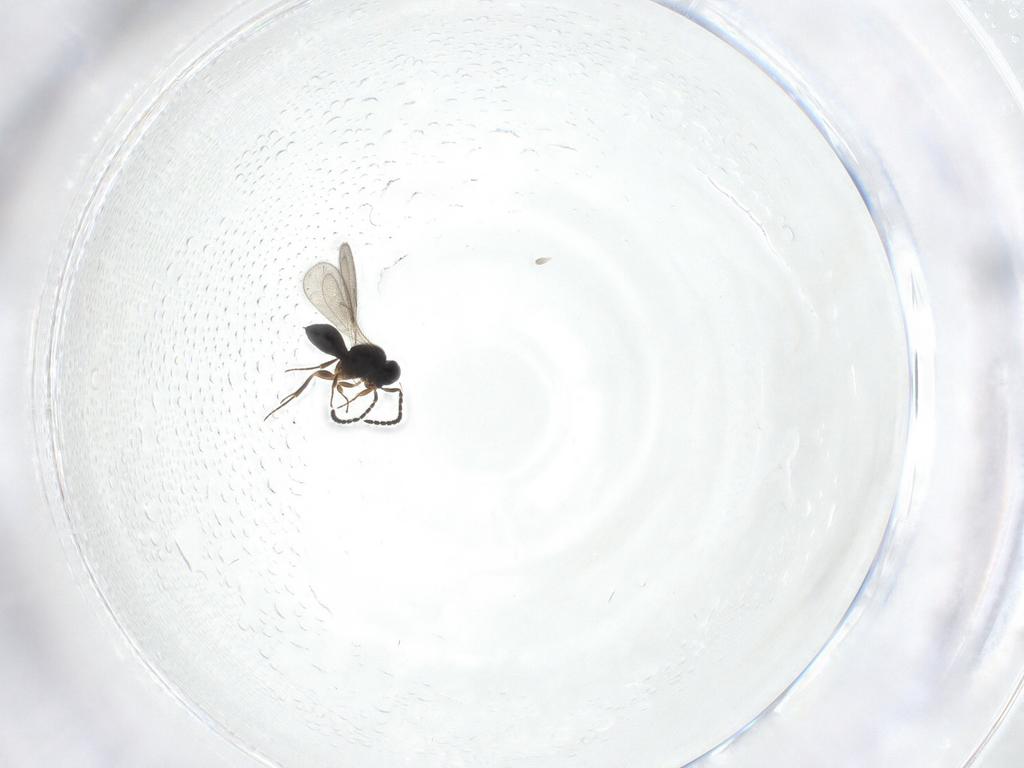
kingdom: Animalia
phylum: Arthropoda
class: Insecta
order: Hymenoptera
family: Scelionidae
